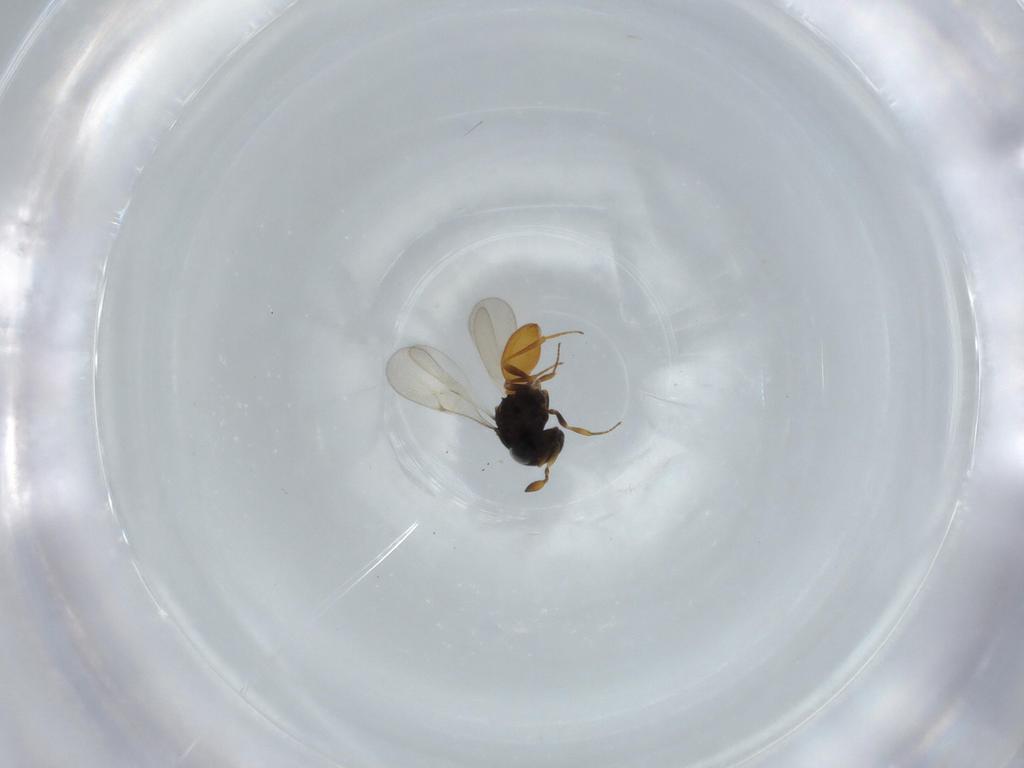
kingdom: Animalia
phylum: Arthropoda
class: Insecta
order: Hymenoptera
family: Scelionidae
